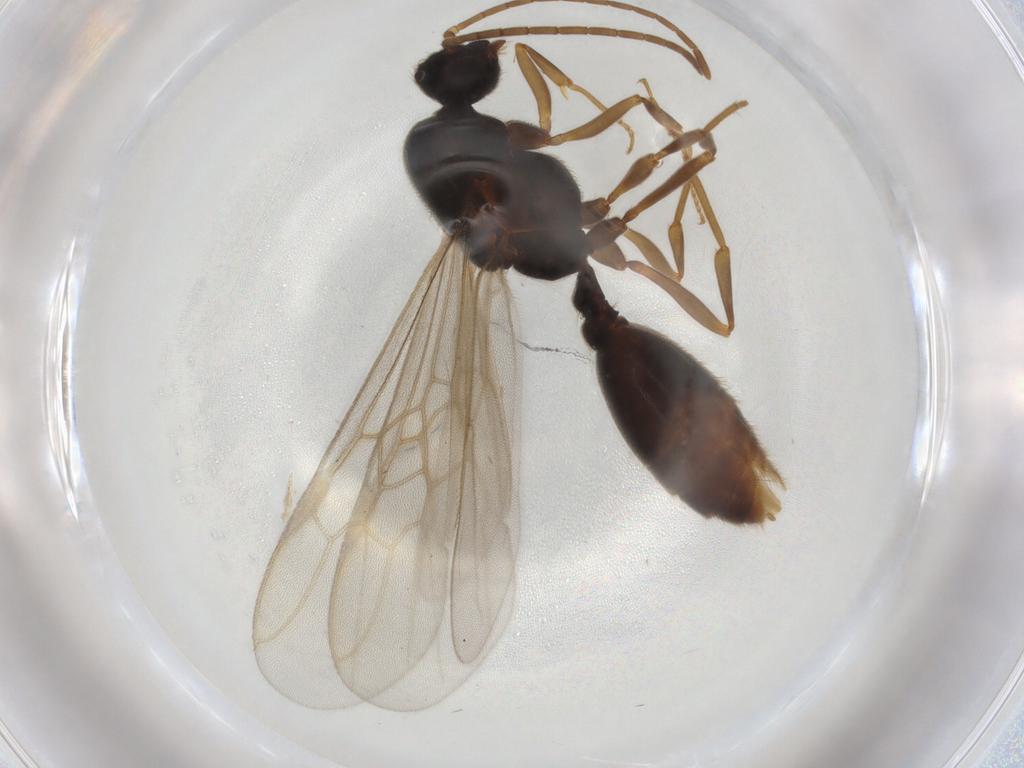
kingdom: Animalia
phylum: Arthropoda
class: Insecta
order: Hymenoptera
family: Formicidae
